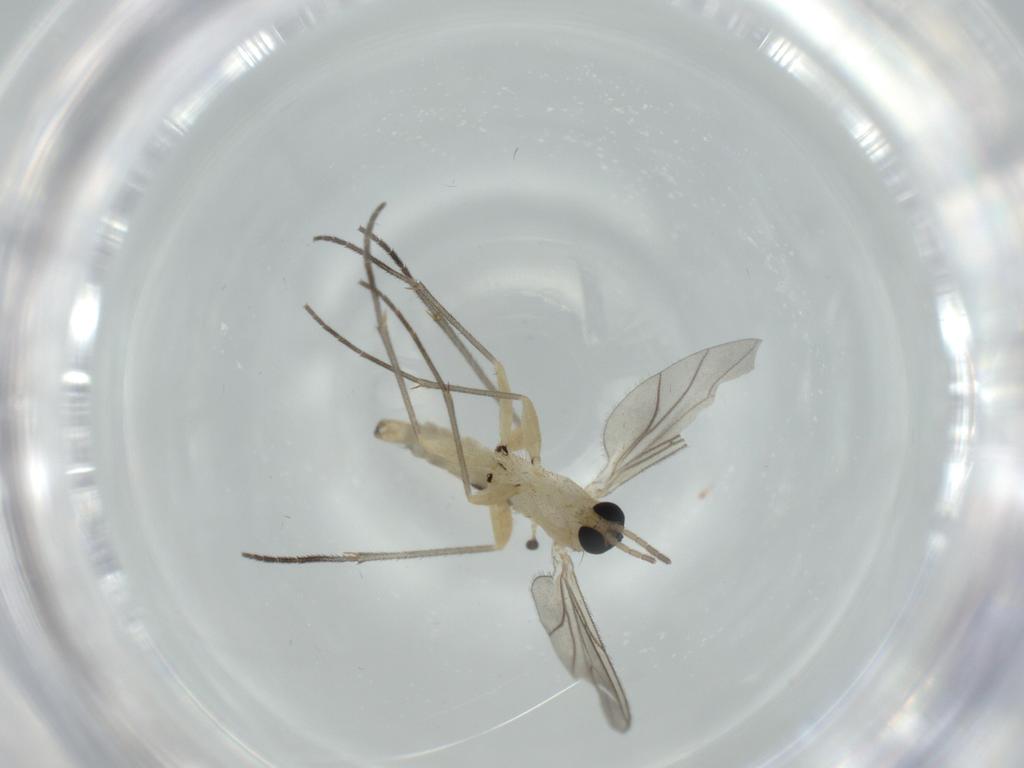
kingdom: Animalia
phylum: Arthropoda
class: Insecta
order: Diptera
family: Sciaridae
